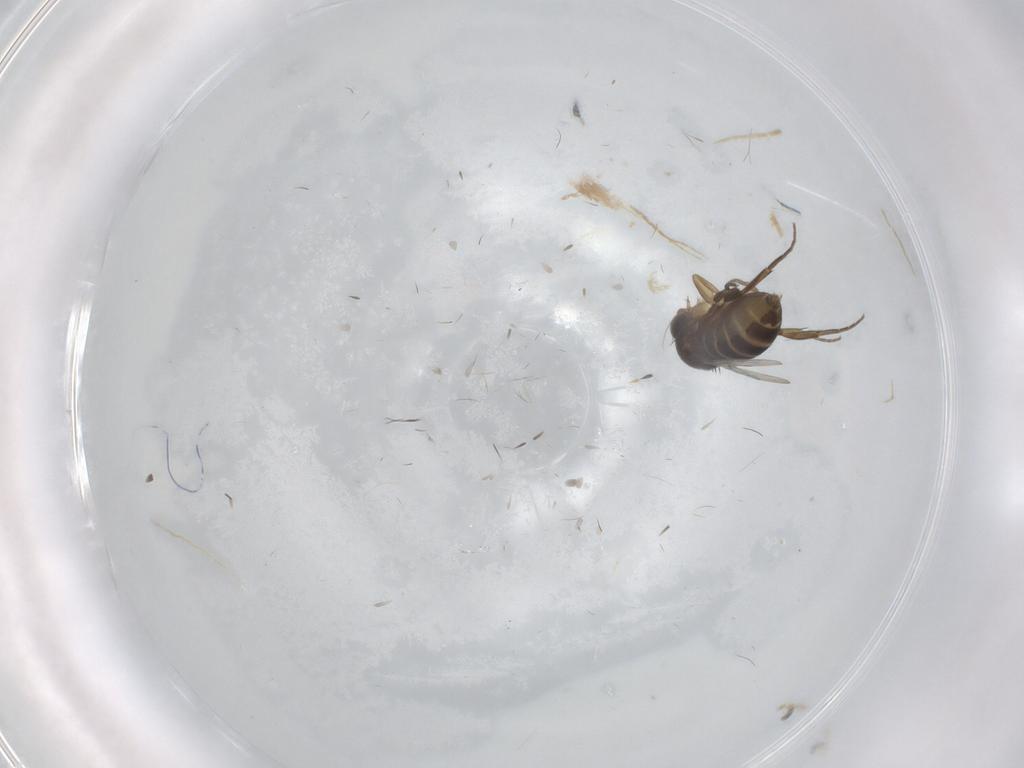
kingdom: Animalia
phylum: Arthropoda
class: Insecta
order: Diptera
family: Phoridae
